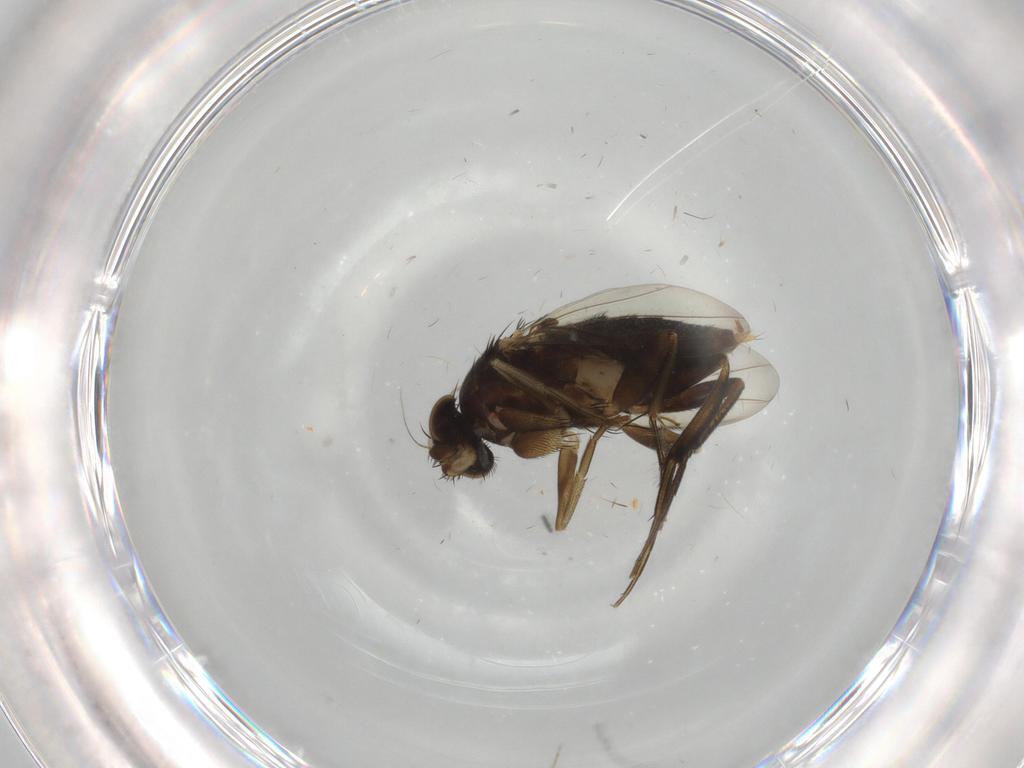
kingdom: Animalia
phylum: Arthropoda
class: Insecta
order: Diptera
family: Phoridae
